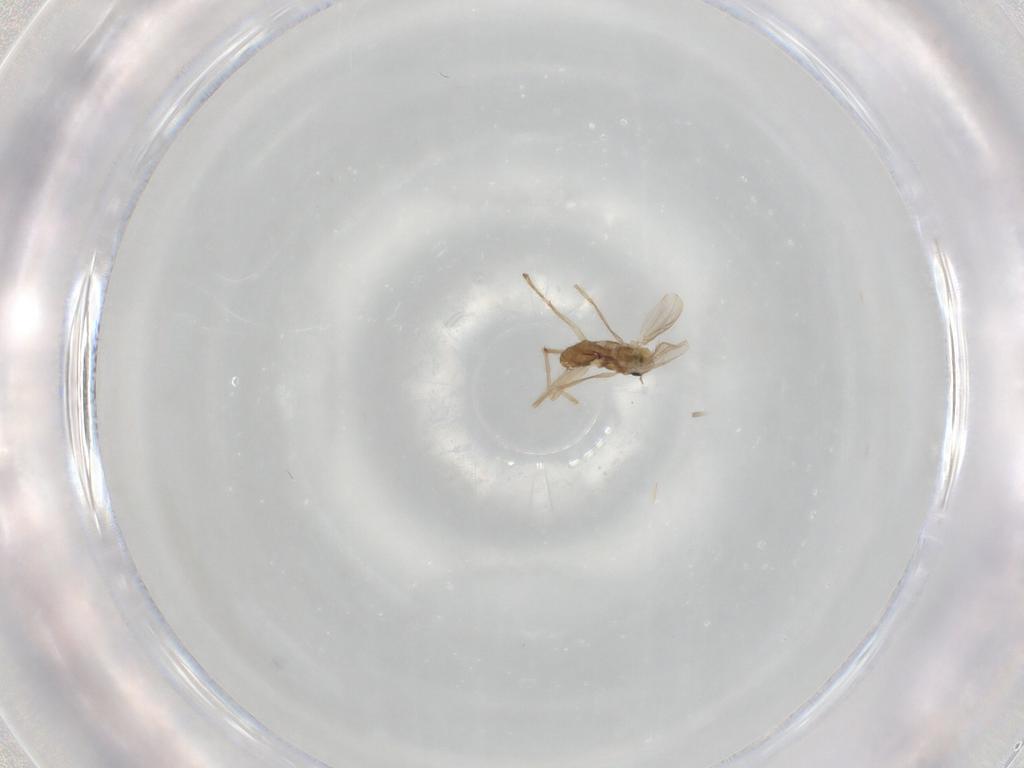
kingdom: Animalia
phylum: Arthropoda
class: Insecta
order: Diptera
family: Chironomidae
